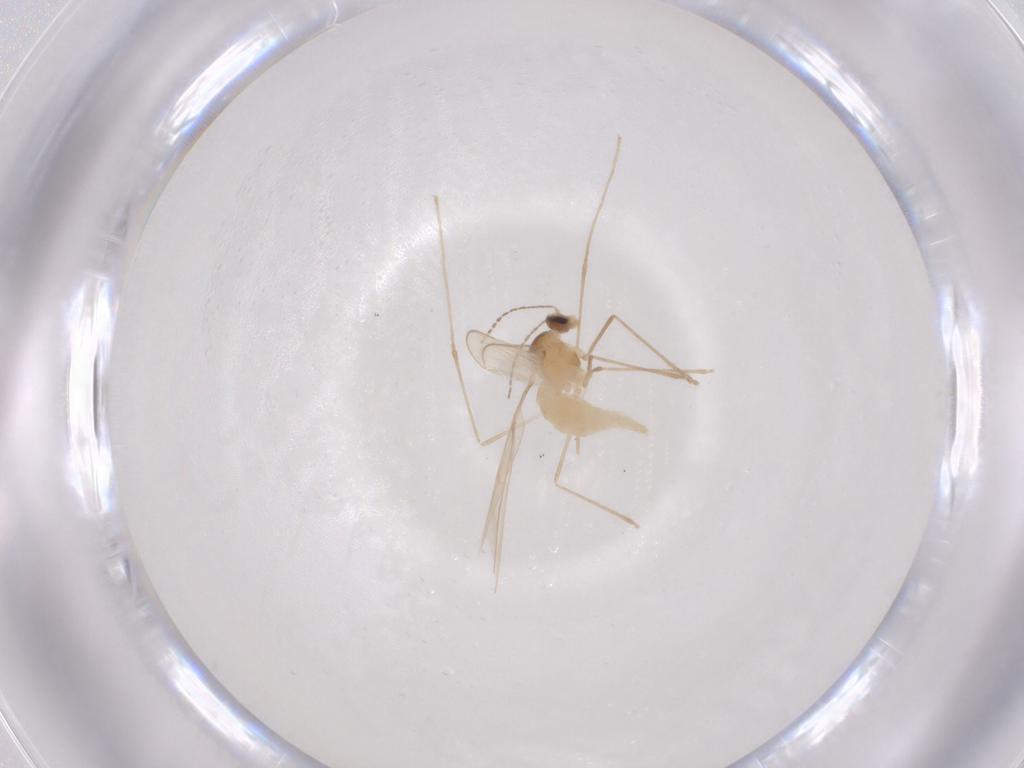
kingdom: Animalia
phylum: Arthropoda
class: Insecta
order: Diptera
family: Cecidomyiidae
